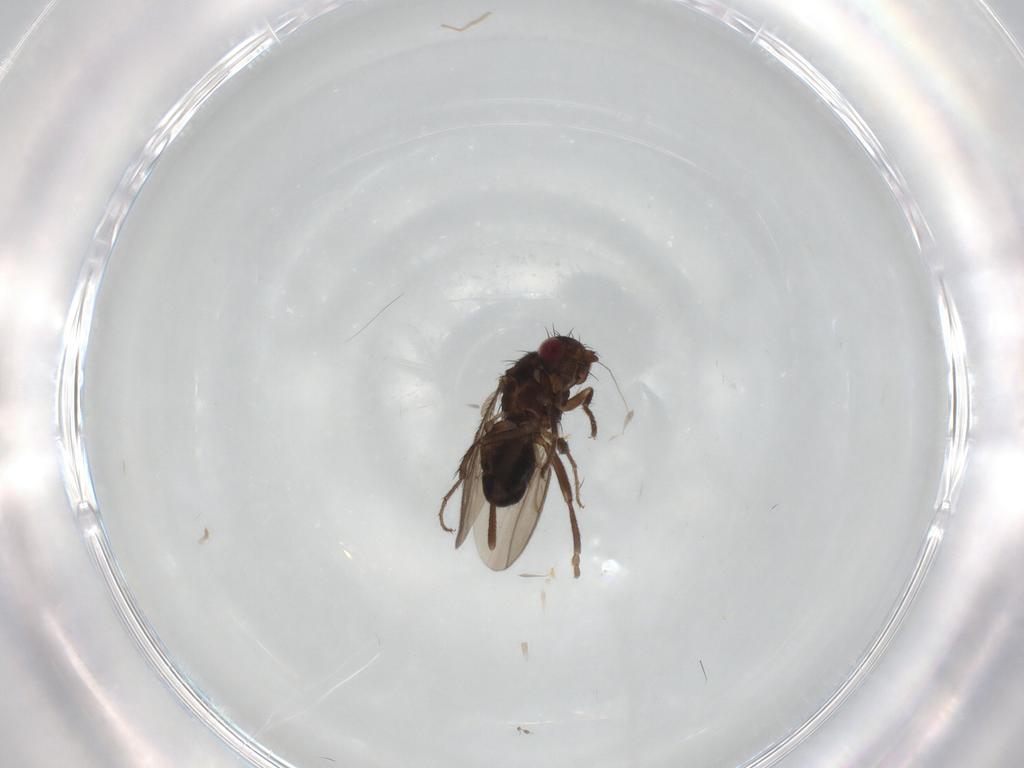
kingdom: Animalia
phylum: Arthropoda
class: Insecta
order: Diptera
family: Sphaeroceridae
